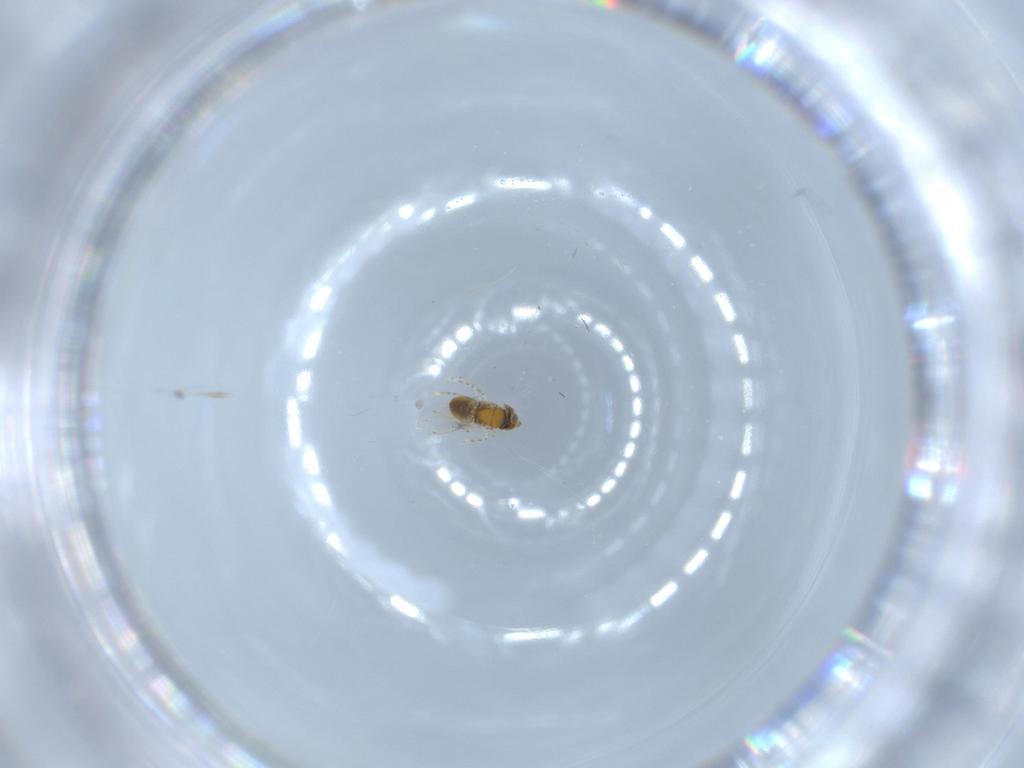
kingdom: Animalia
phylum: Arthropoda
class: Insecta
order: Hymenoptera
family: Encyrtidae
